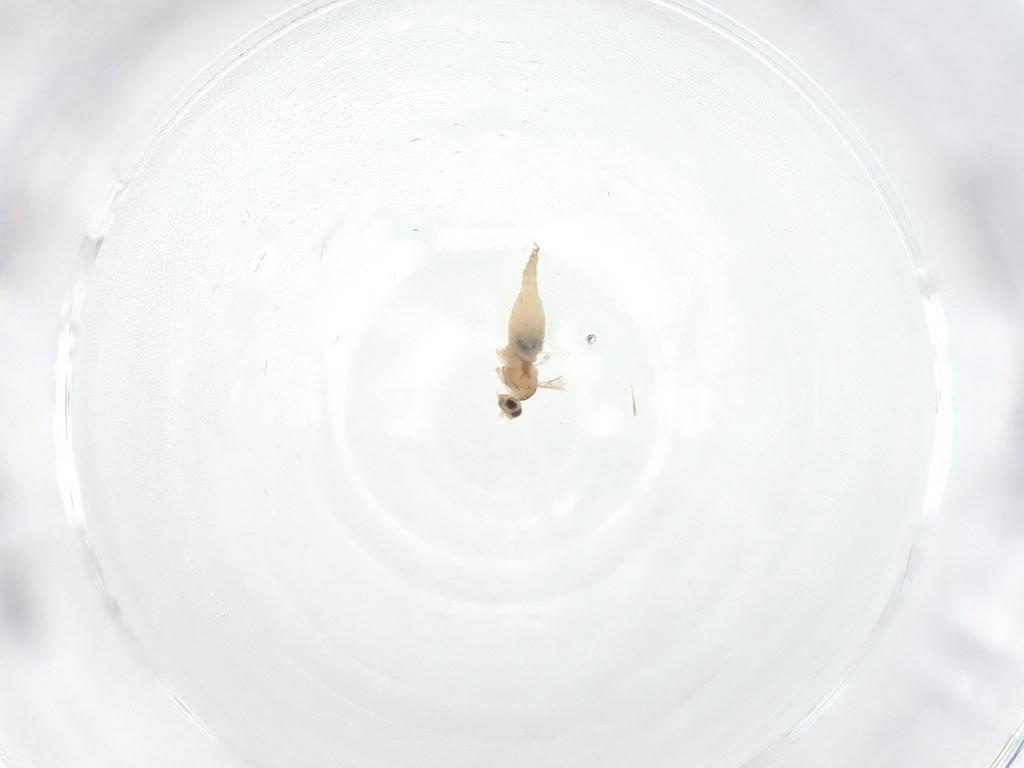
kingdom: Animalia
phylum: Arthropoda
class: Insecta
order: Diptera
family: Cecidomyiidae
